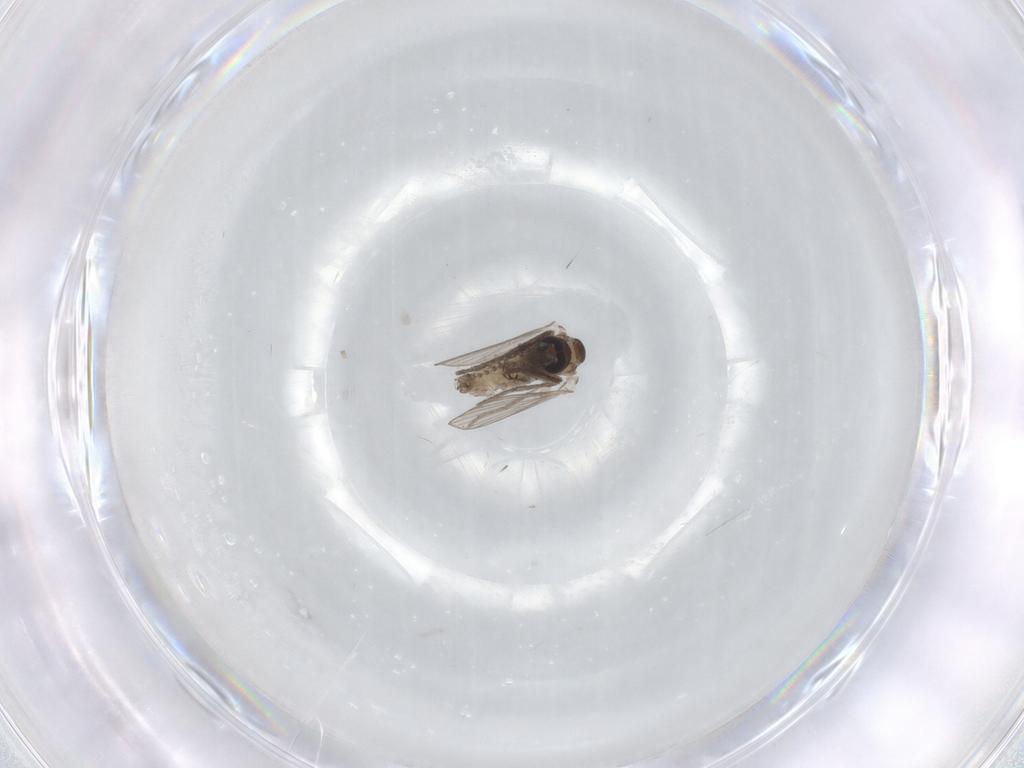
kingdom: Animalia
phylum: Arthropoda
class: Insecta
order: Diptera
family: Psychodidae
